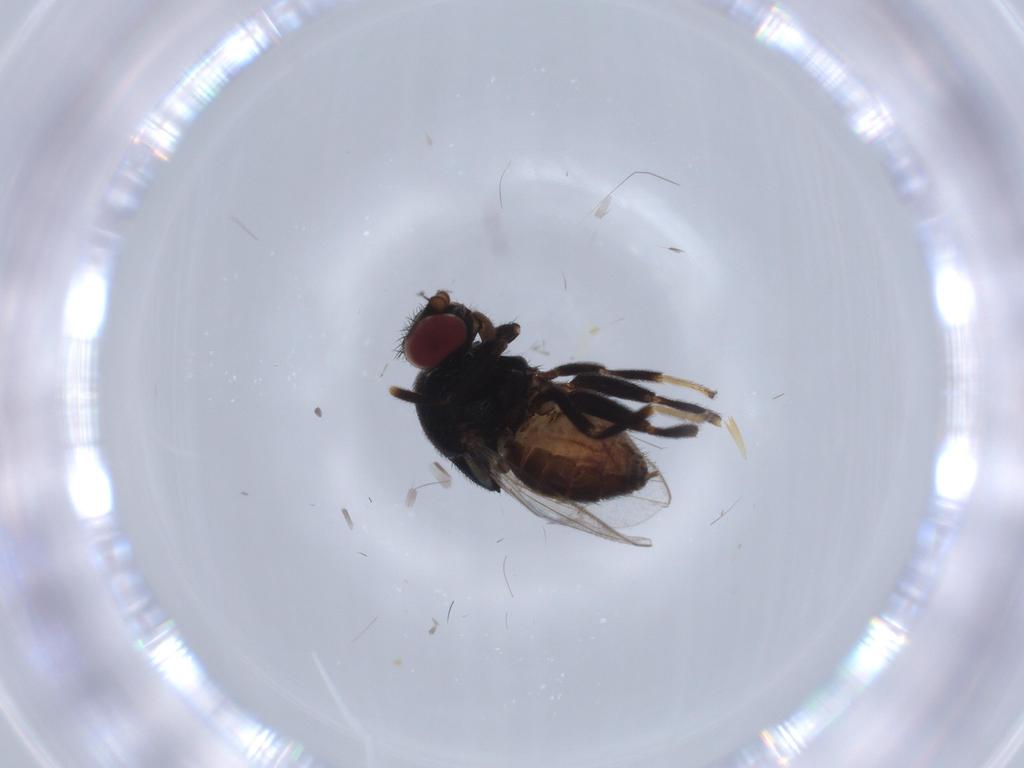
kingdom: Animalia
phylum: Arthropoda
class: Insecta
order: Diptera
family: Chloropidae
